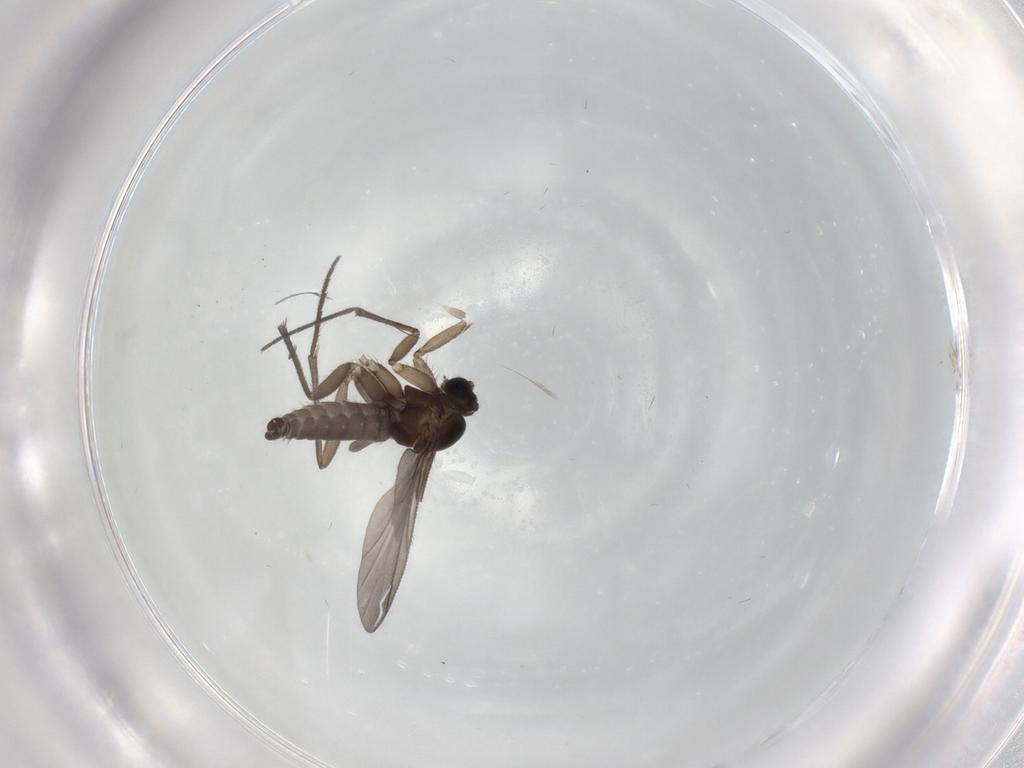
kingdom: Animalia
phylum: Arthropoda
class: Insecta
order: Diptera
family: Sciaridae
